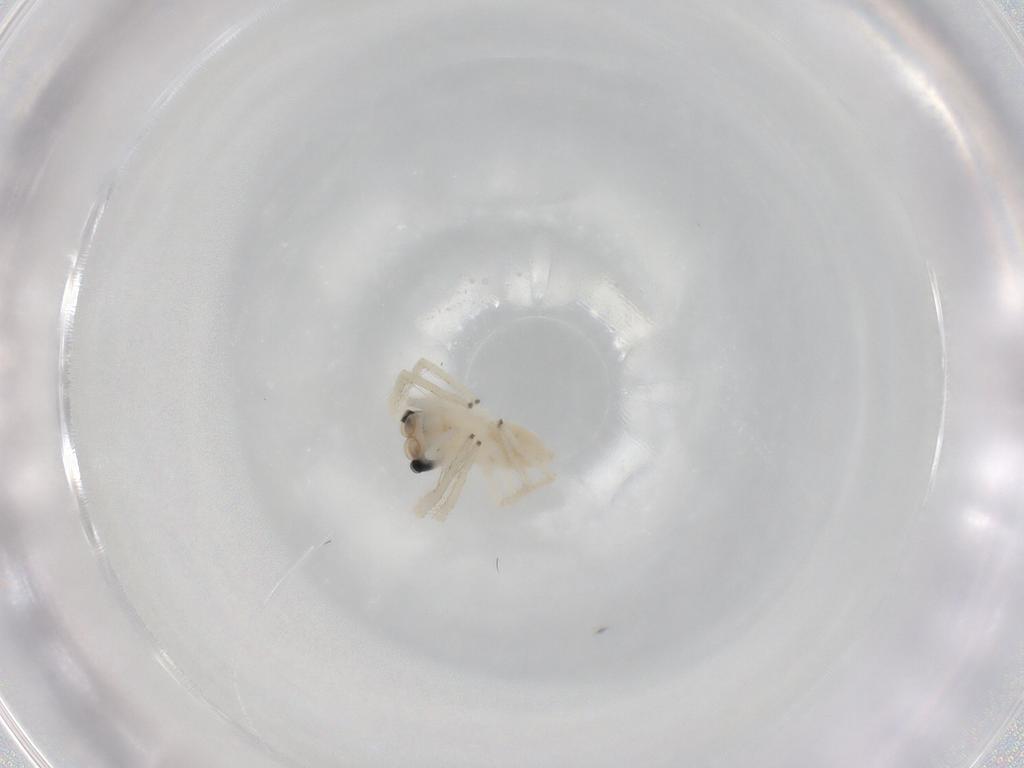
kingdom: Animalia
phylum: Arthropoda
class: Arachnida
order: Araneae
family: Salticidae
